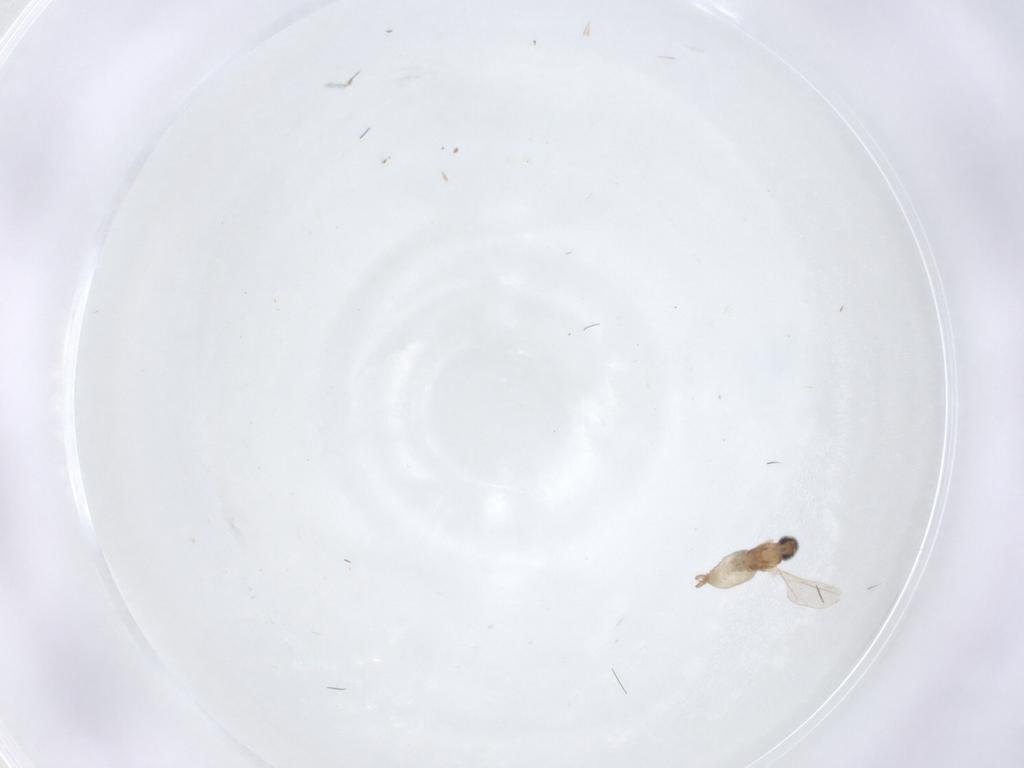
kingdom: Animalia
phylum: Arthropoda
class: Insecta
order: Diptera
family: Cecidomyiidae
